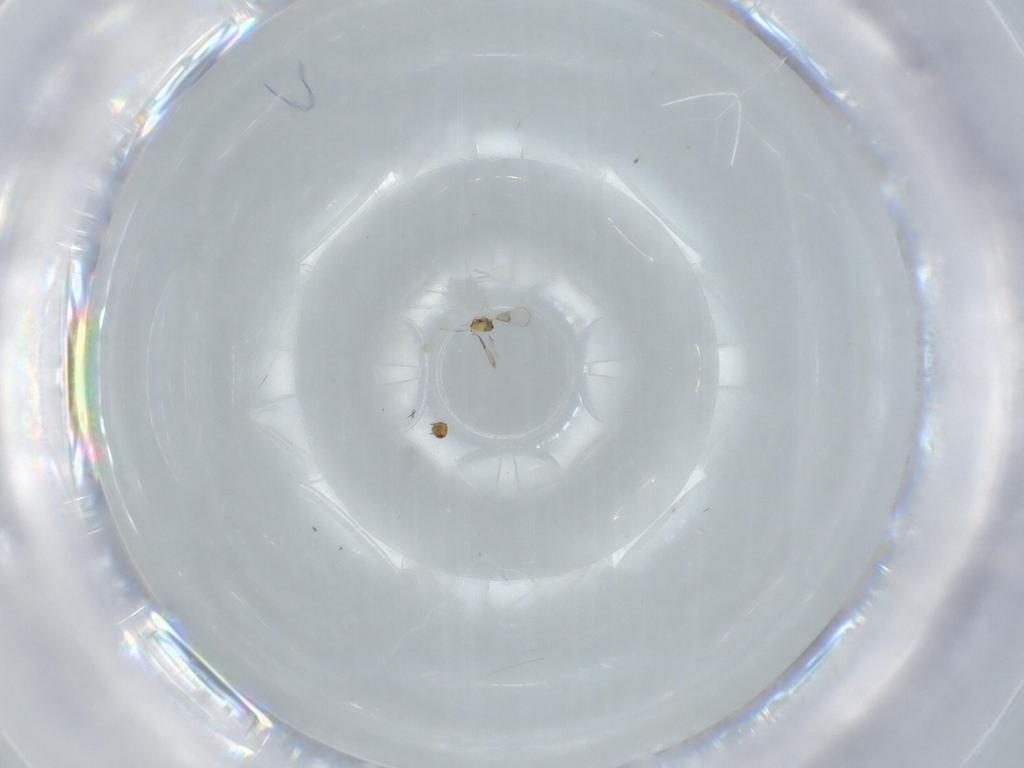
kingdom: Animalia
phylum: Arthropoda
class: Insecta
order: Hymenoptera
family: Trichogrammatidae
